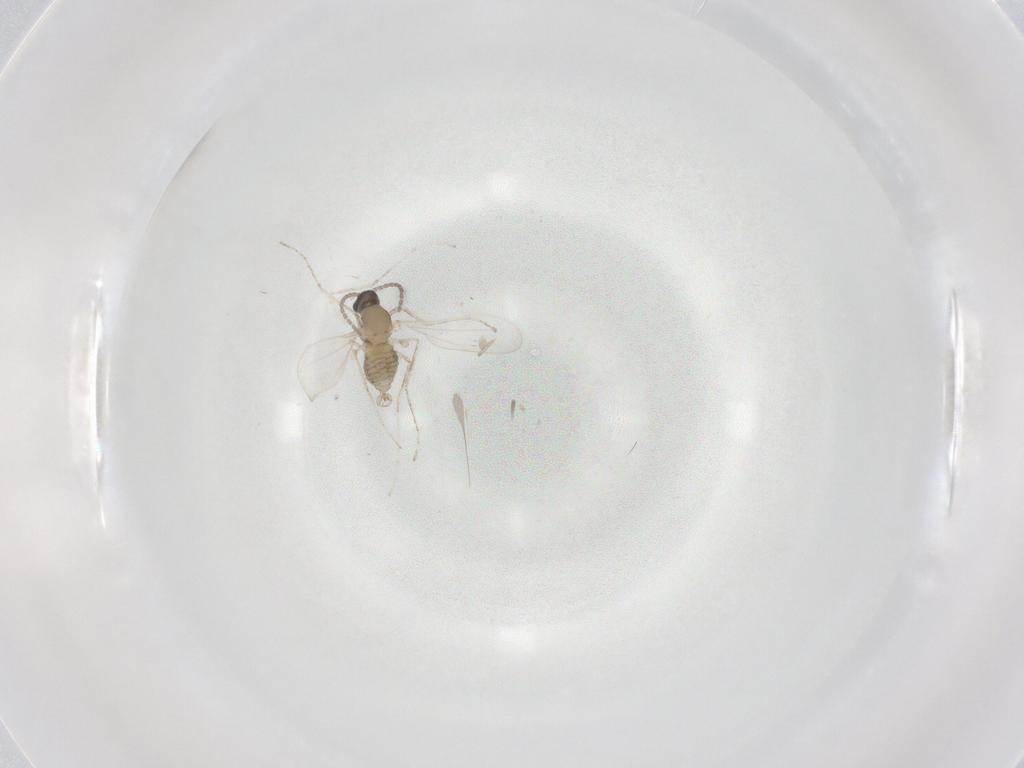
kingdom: Animalia
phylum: Arthropoda
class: Insecta
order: Diptera
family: Cecidomyiidae
